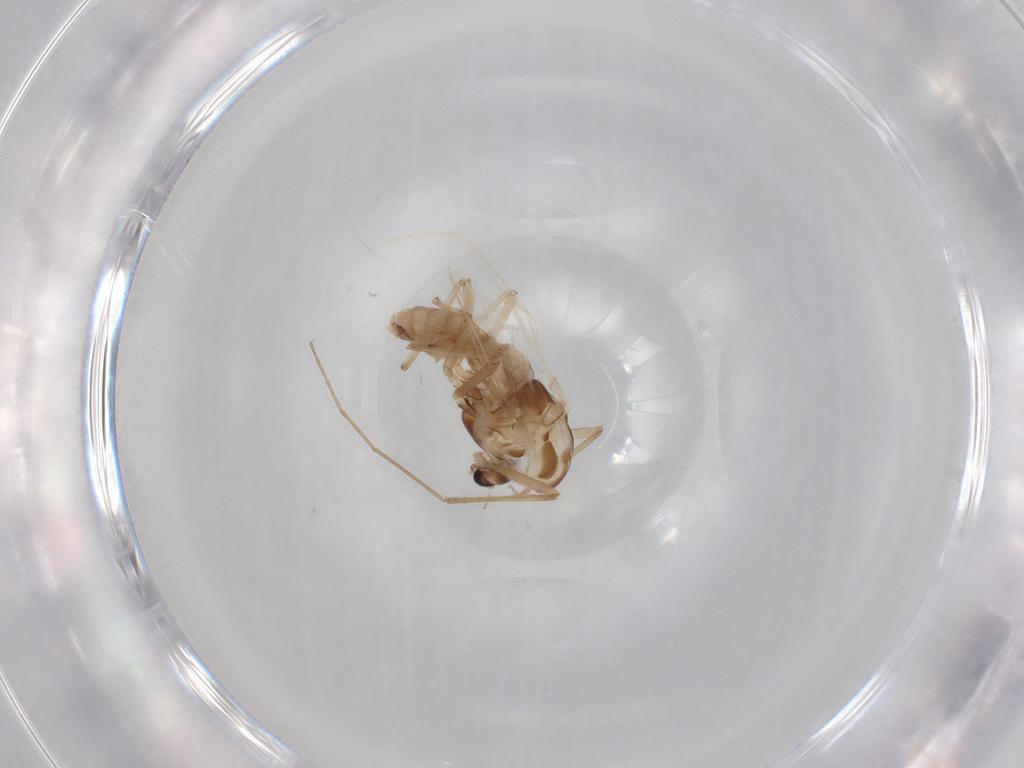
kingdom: Animalia
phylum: Arthropoda
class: Insecta
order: Diptera
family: Chironomidae
